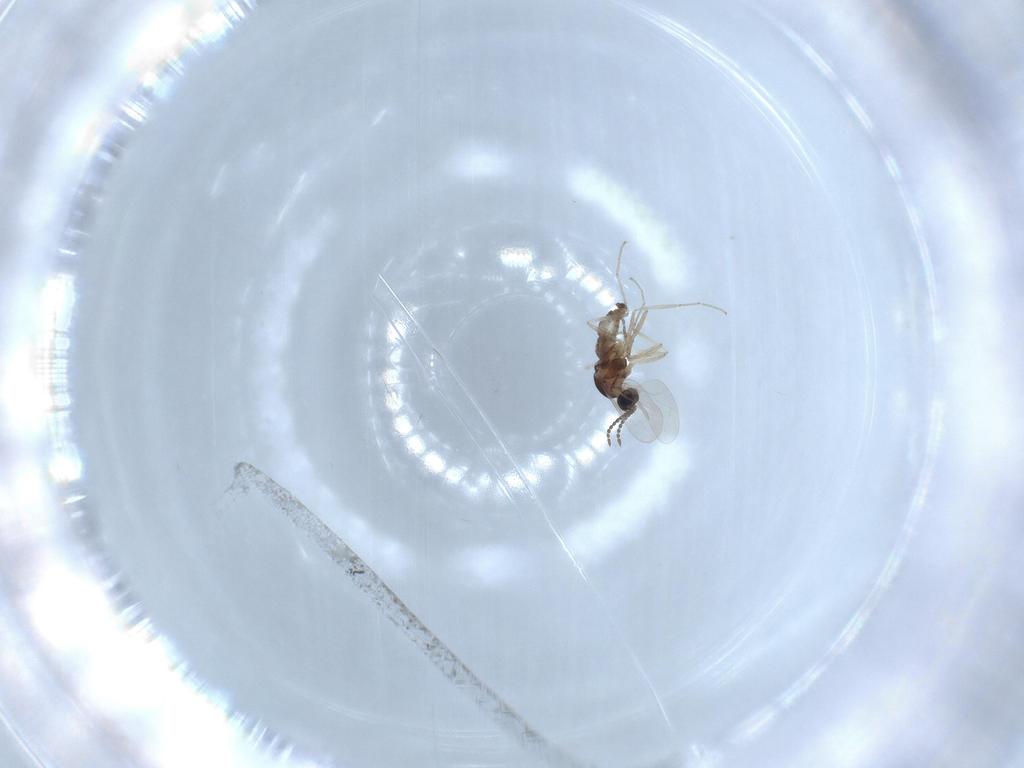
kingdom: Animalia
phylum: Arthropoda
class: Insecta
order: Diptera
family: Cecidomyiidae
